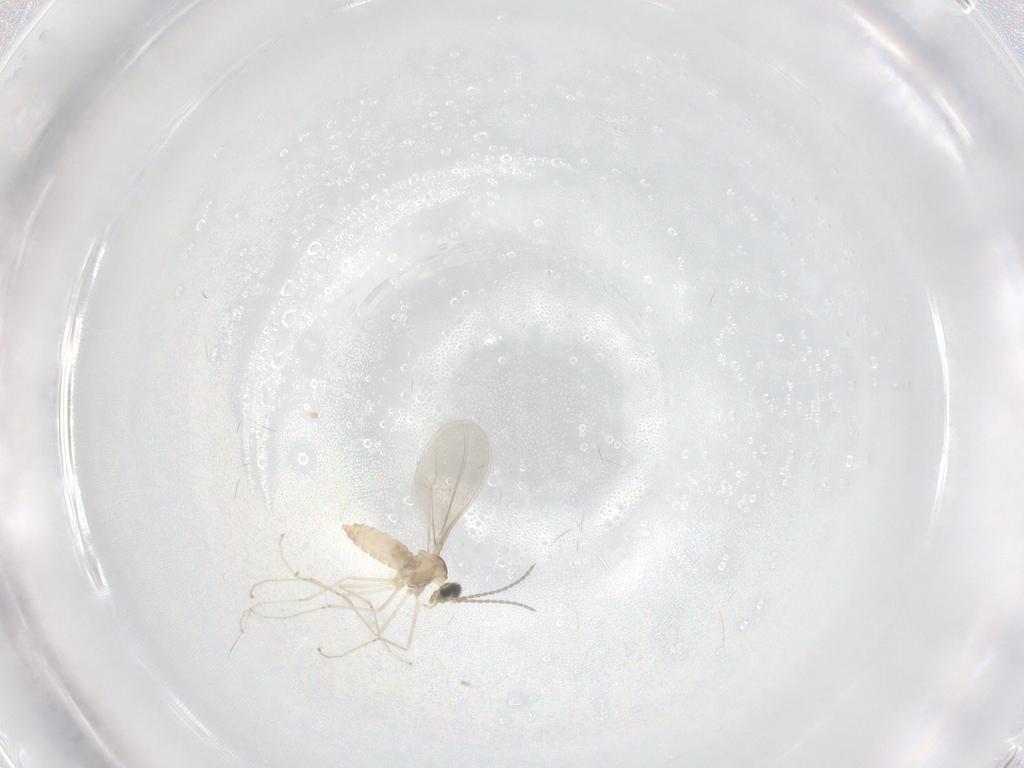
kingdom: Animalia
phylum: Arthropoda
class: Insecta
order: Diptera
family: Cecidomyiidae
